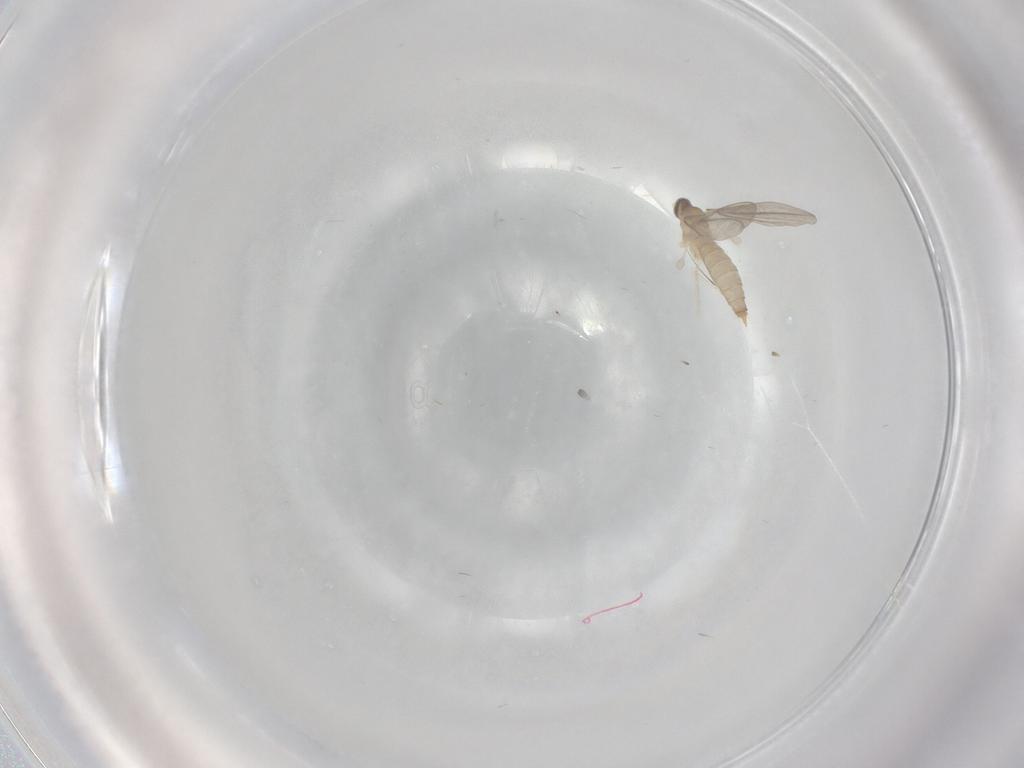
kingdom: Animalia
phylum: Arthropoda
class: Insecta
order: Diptera
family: Cecidomyiidae
